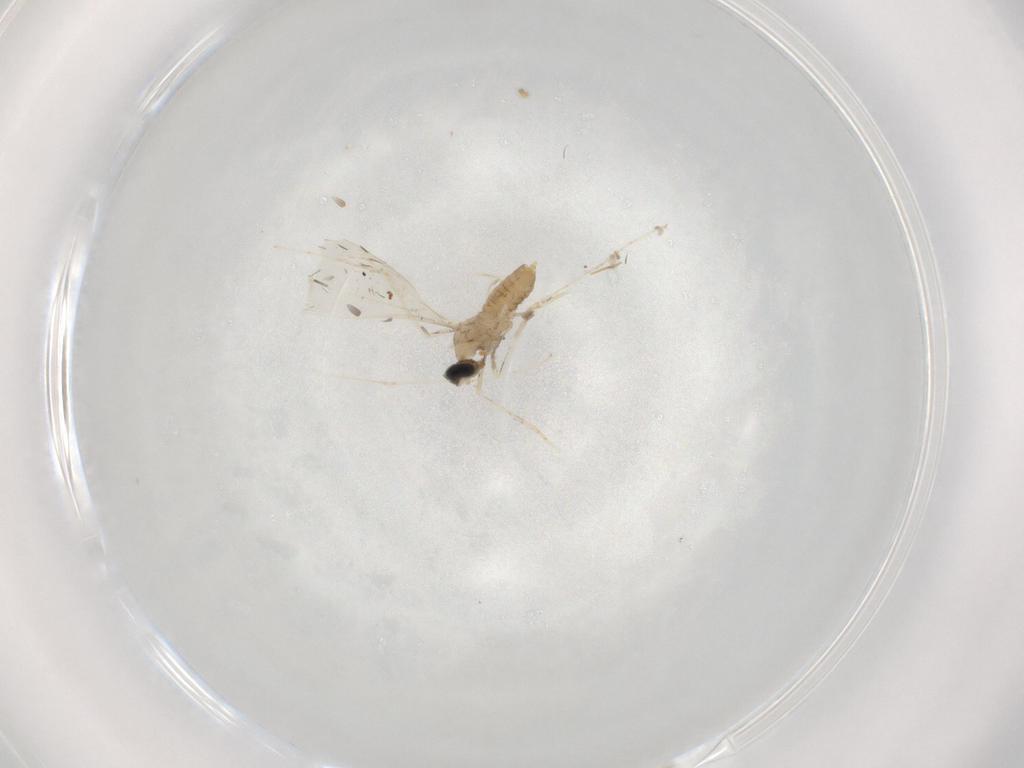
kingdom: Animalia
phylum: Arthropoda
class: Insecta
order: Diptera
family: Cecidomyiidae
